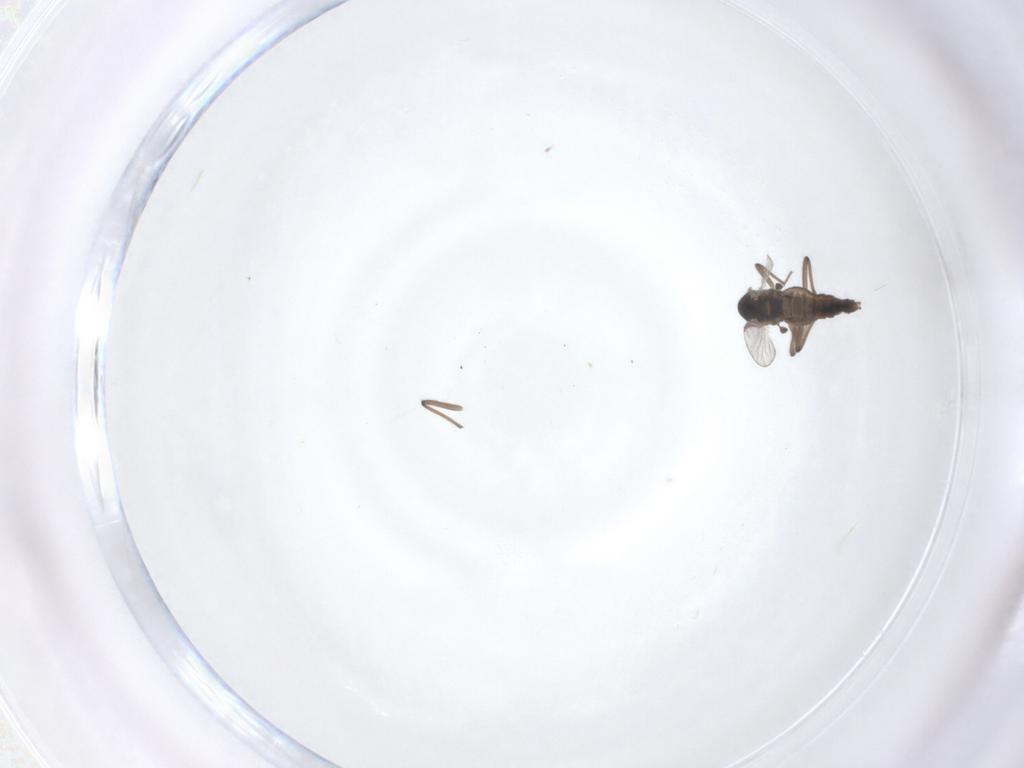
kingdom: Animalia
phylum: Arthropoda
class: Insecta
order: Diptera
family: Chironomidae
